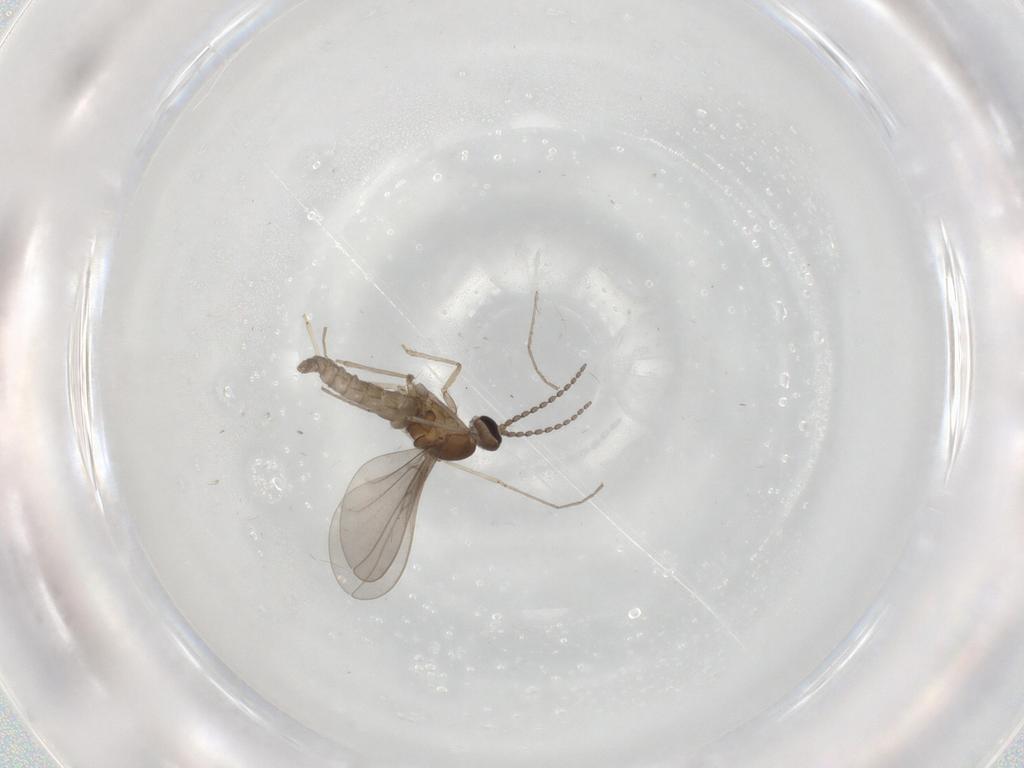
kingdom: Animalia
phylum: Arthropoda
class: Insecta
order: Diptera
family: Cecidomyiidae
